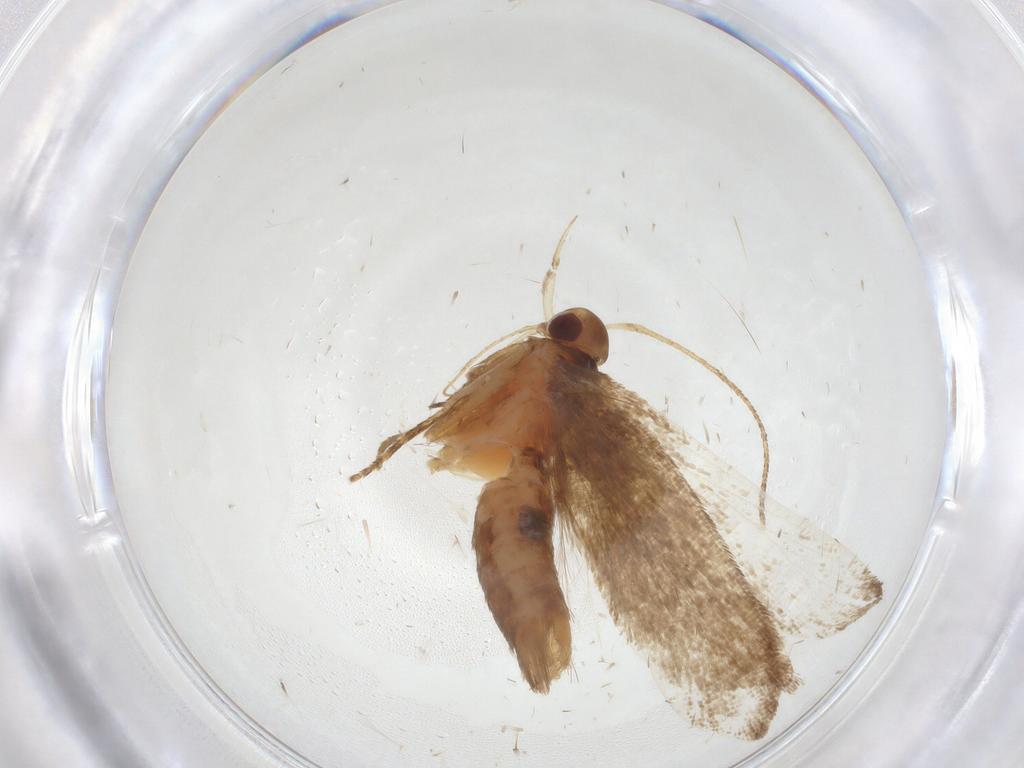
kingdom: Animalia
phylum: Arthropoda
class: Insecta
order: Lepidoptera
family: Gelechiidae
